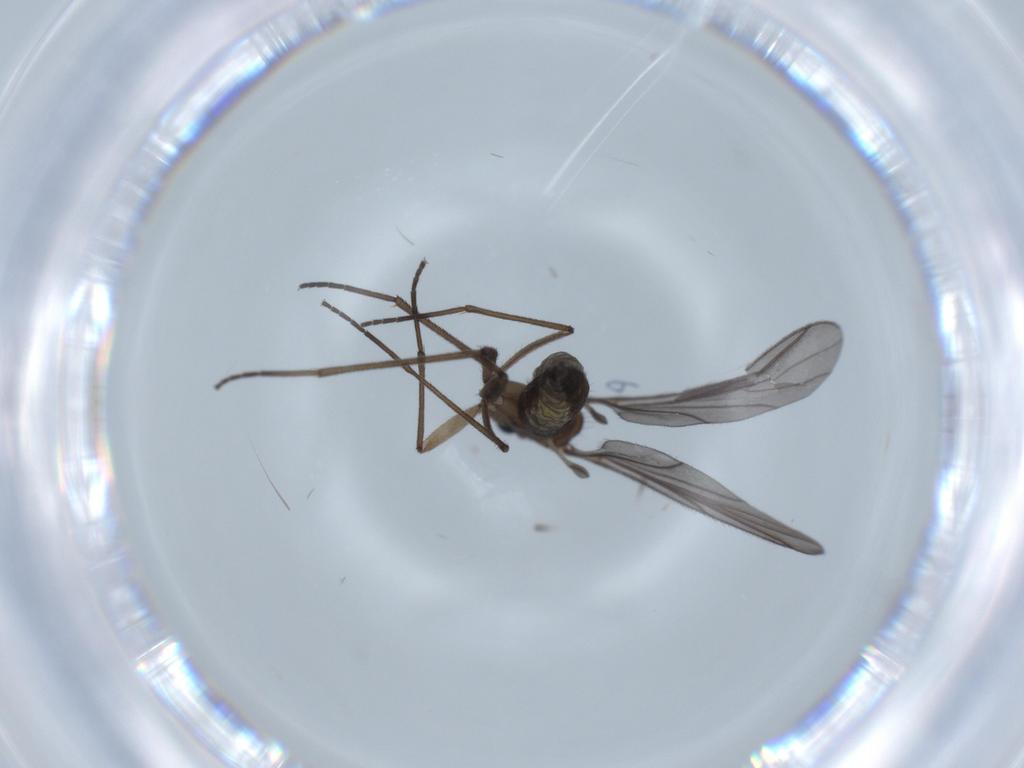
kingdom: Animalia
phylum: Arthropoda
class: Insecta
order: Diptera
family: Sciaridae
